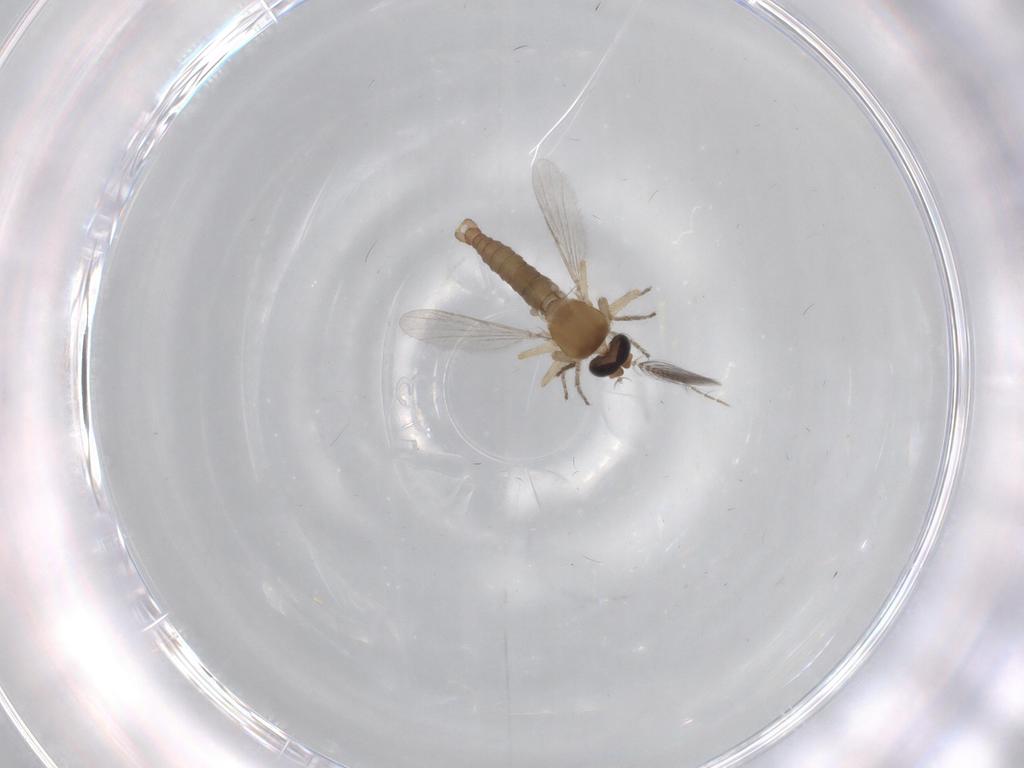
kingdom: Animalia
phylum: Arthropoda
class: Insecta
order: Diptera
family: Ceratopogonidae
